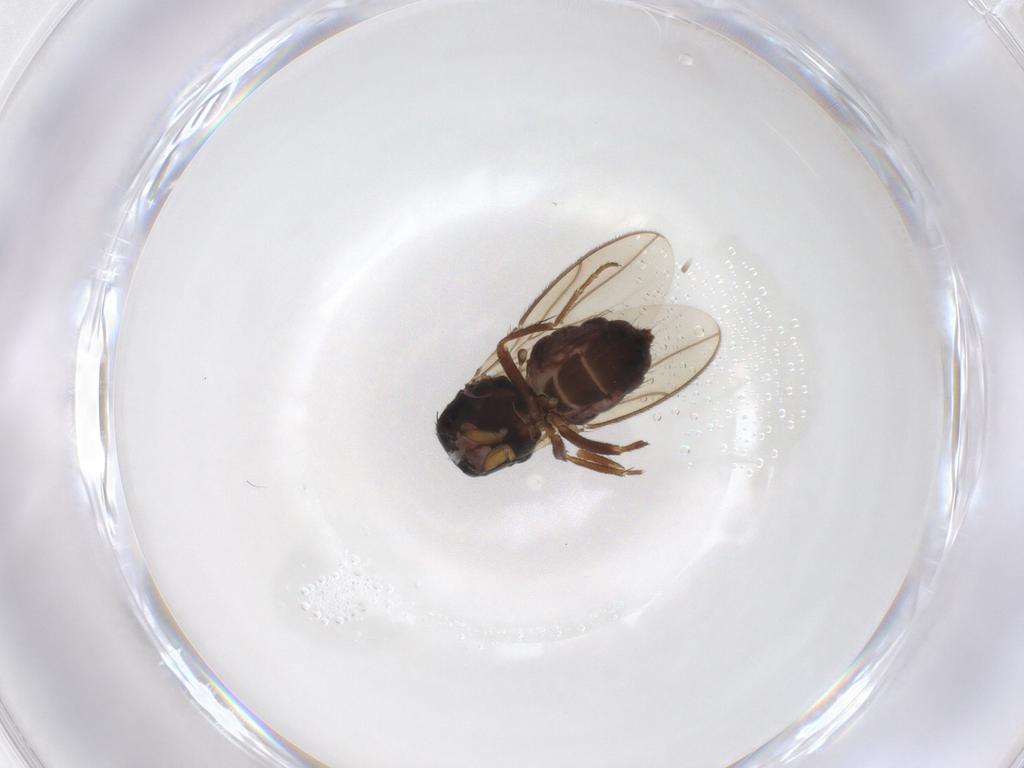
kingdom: Animalia
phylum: Arthropoda
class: Insecta
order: Diptera
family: Sphaeroceridae
